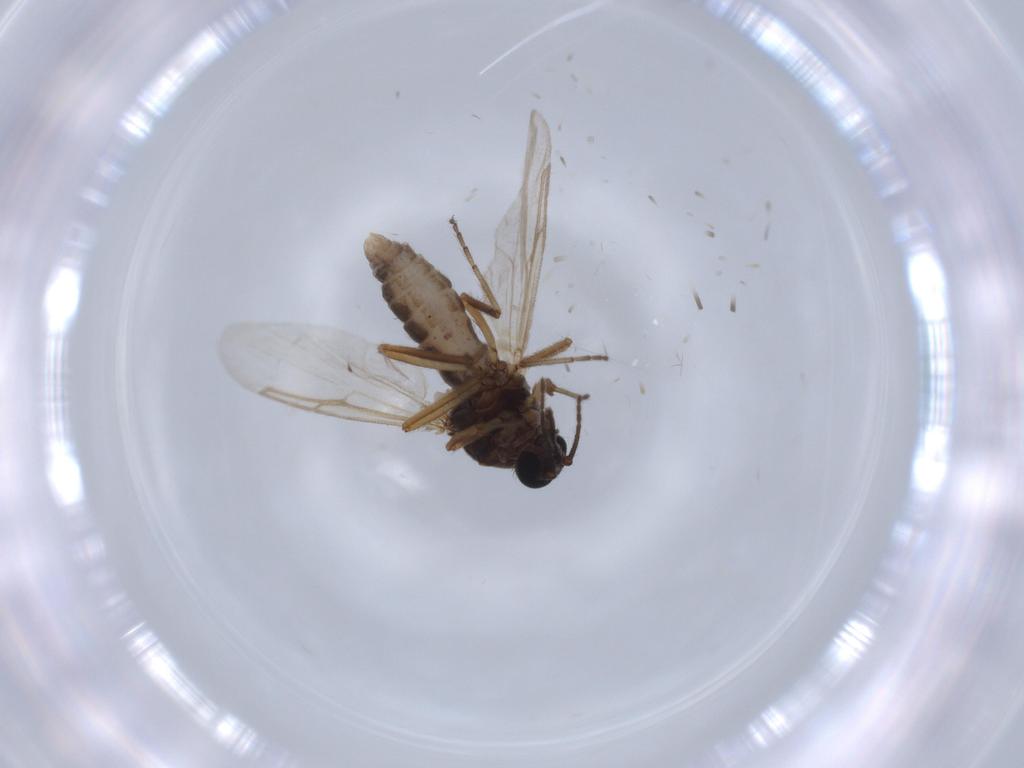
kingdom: Animalia
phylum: Arthropoda
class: Insecta
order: Diptera
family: Ceratopogonidae
